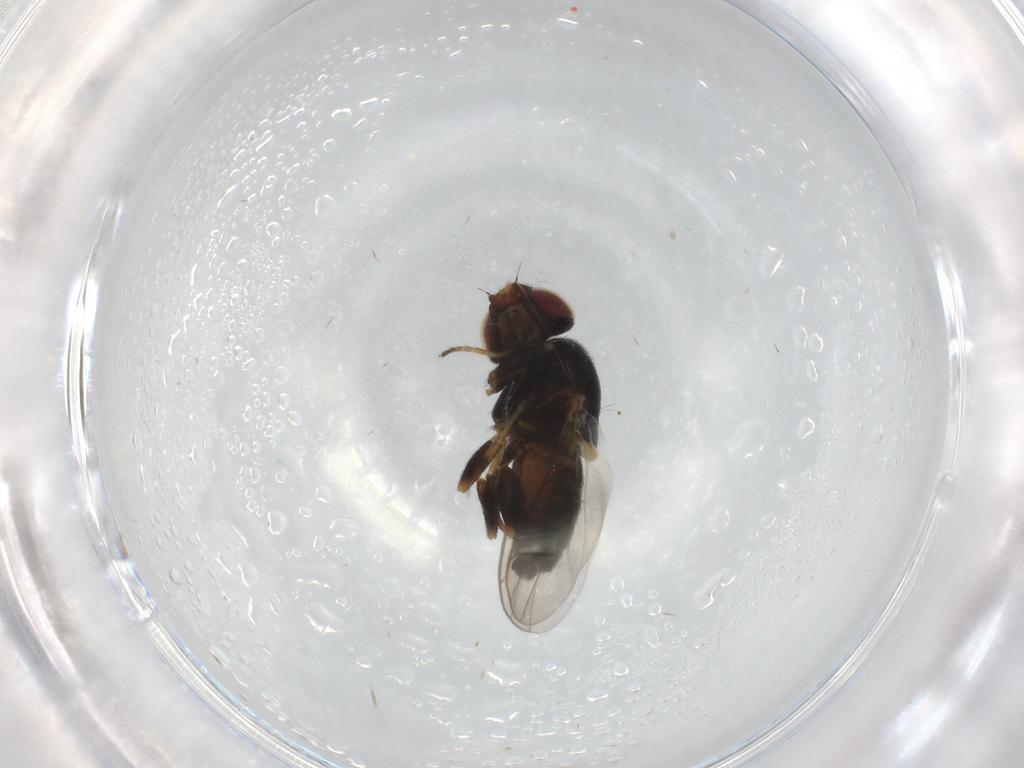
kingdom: Animalia
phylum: Arthropoda
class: Insecta
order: Diptera
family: Chloropidae
